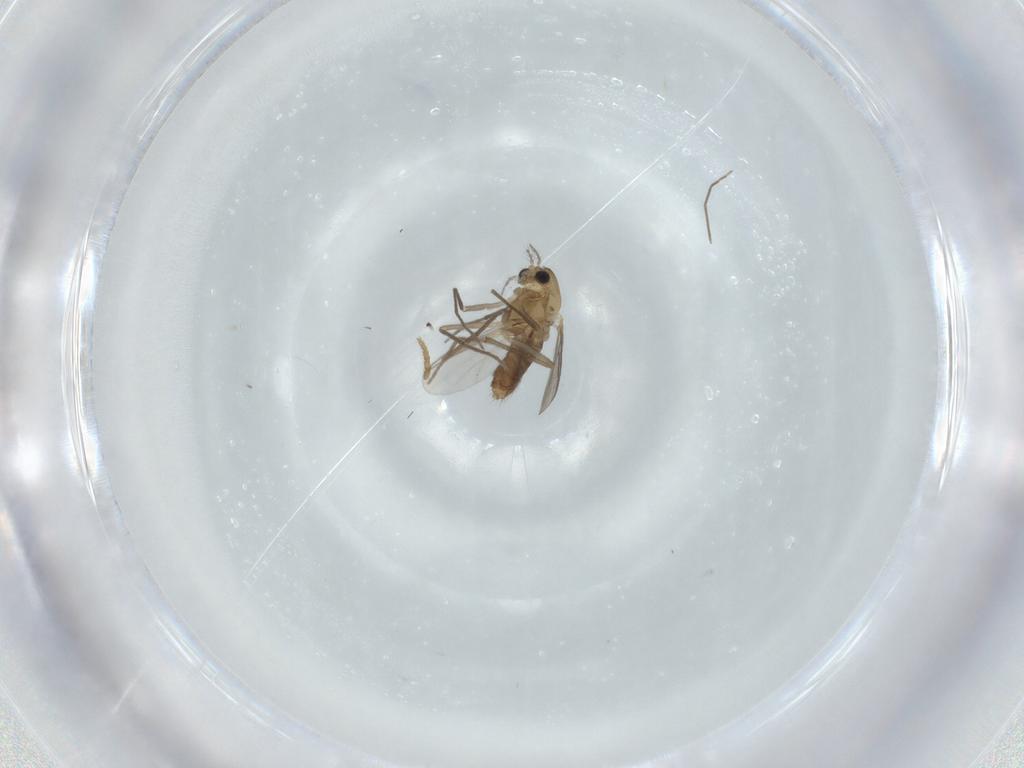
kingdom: Animalia
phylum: Arthropoda
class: Insecta
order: Diptera
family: Chironomidae
